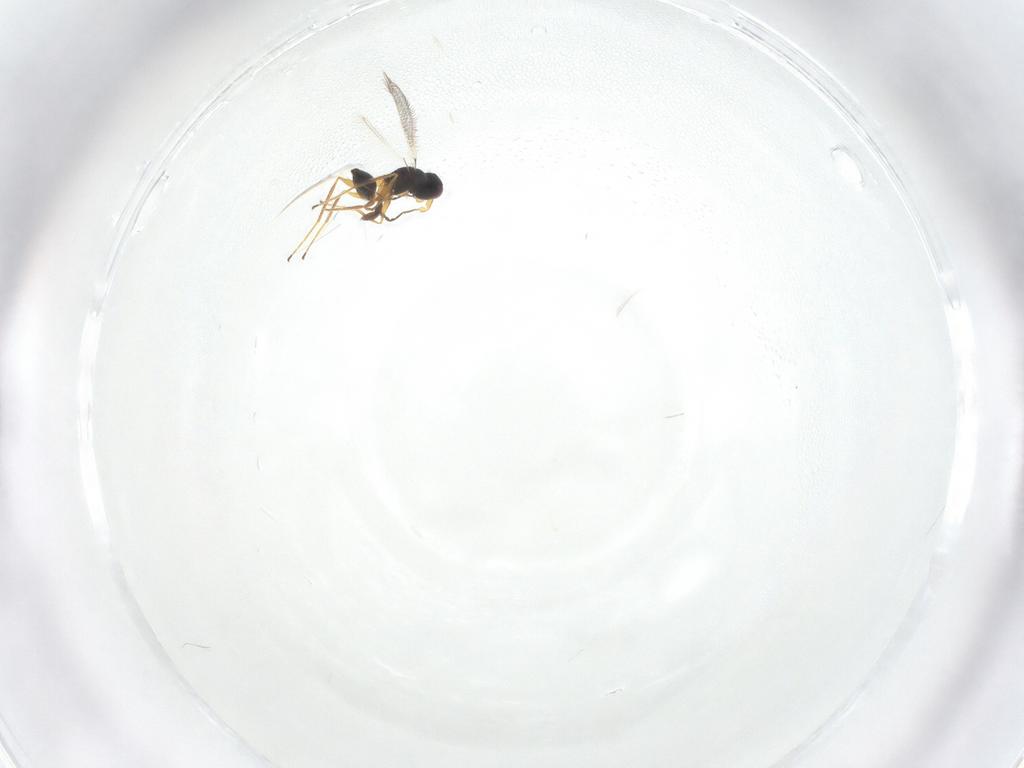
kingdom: Animalia
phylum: Arthropoda
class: Insecta
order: Hymenoptera
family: Mymaridae
